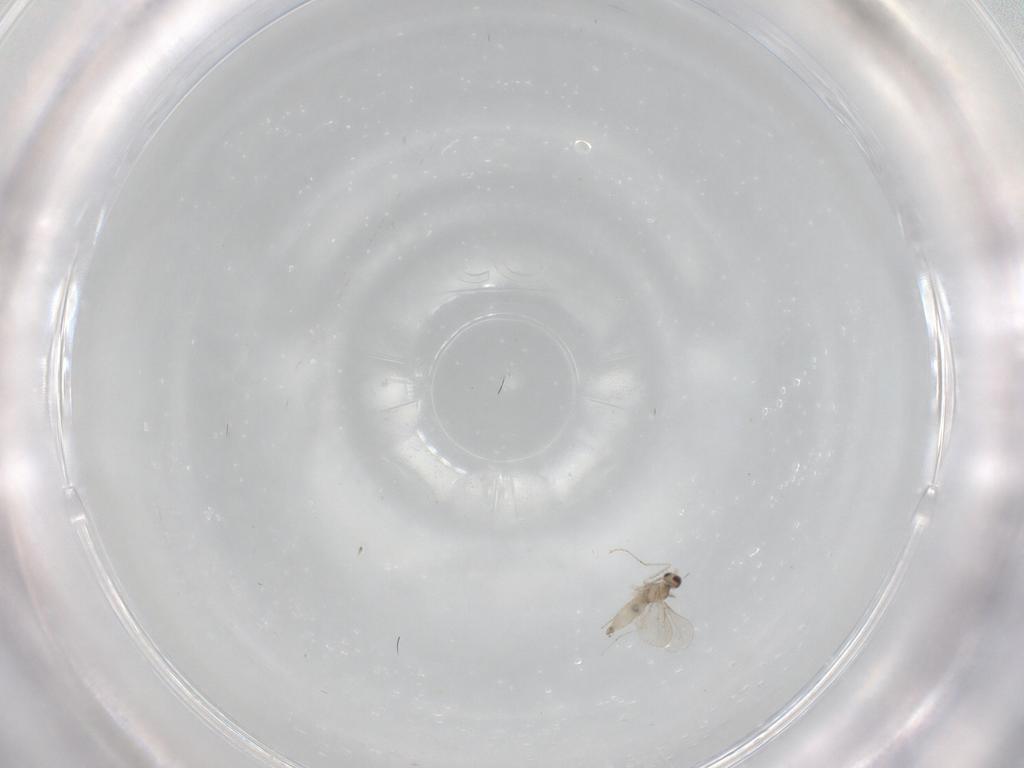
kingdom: Animalia
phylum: Arthropoda
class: Insecta
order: Diptera
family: Cecidomyiidae
